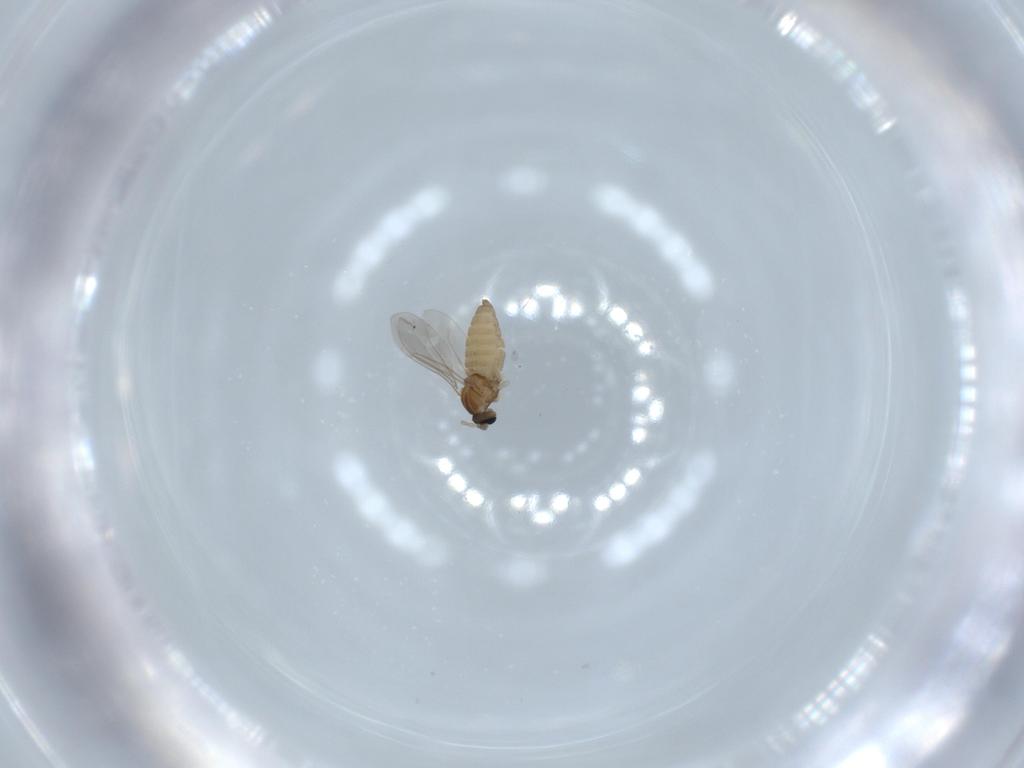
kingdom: Animalia
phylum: Arthropoda
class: Insecta
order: Diptera
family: Cecidomyiidae
